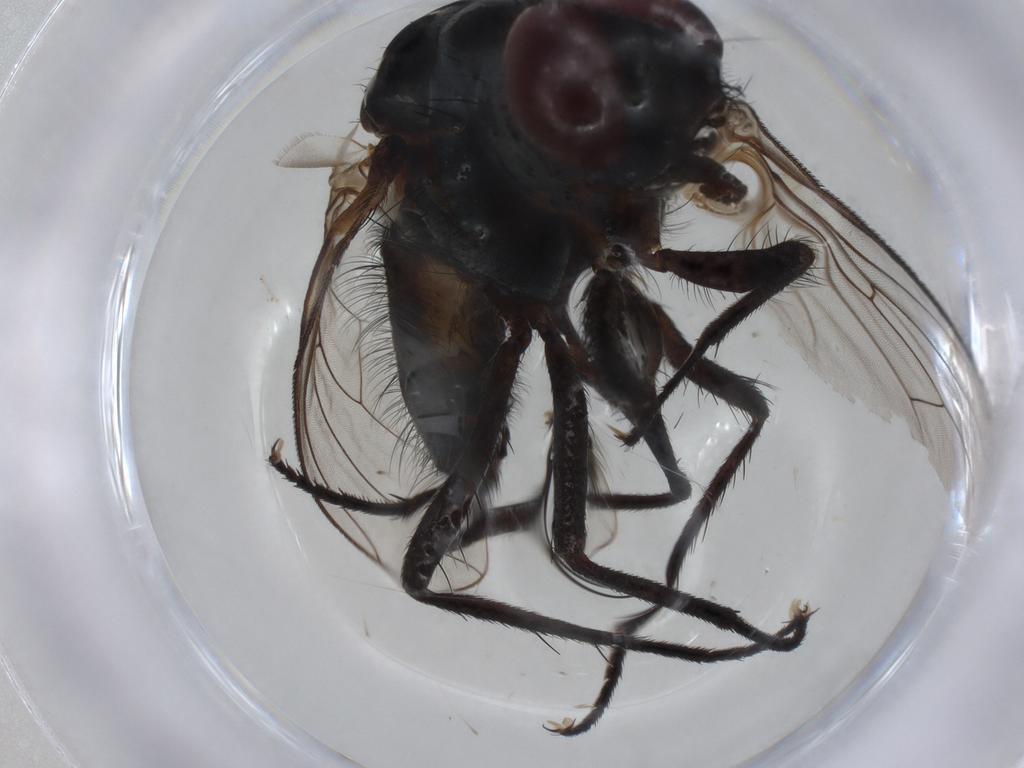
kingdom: Animalia
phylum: Arthropoda
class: Insecta
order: Diptera
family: Anthomyiidae
